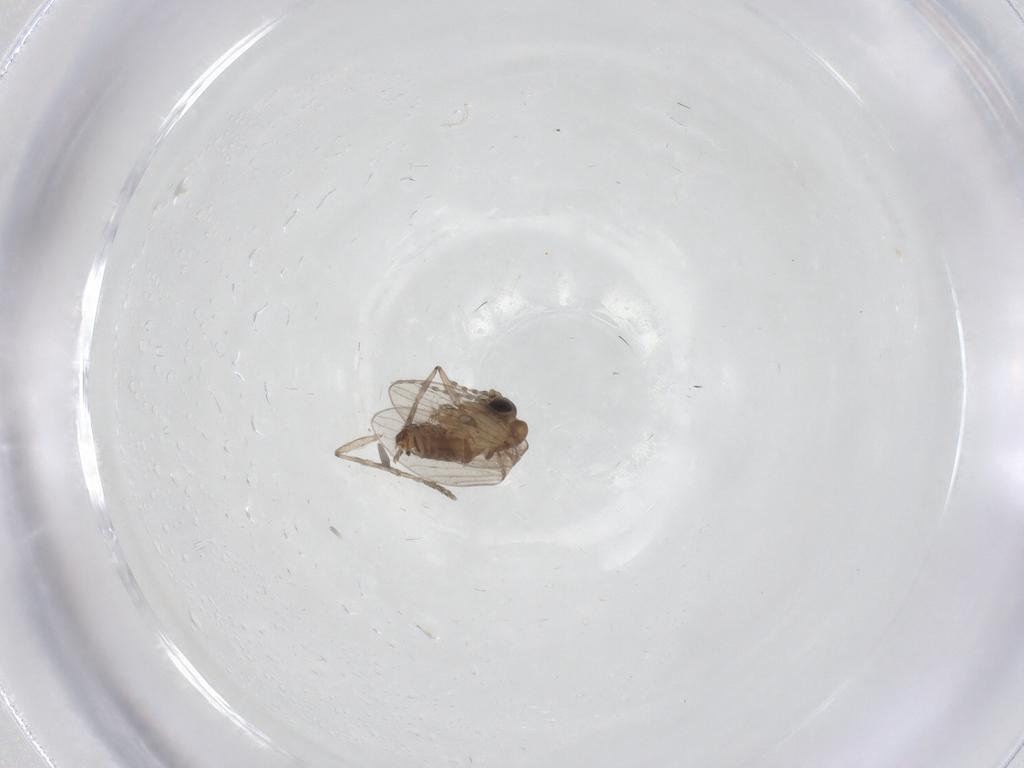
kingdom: Animalia
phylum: Arthropoda
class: Insecta
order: Diptera
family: Psychodidae
